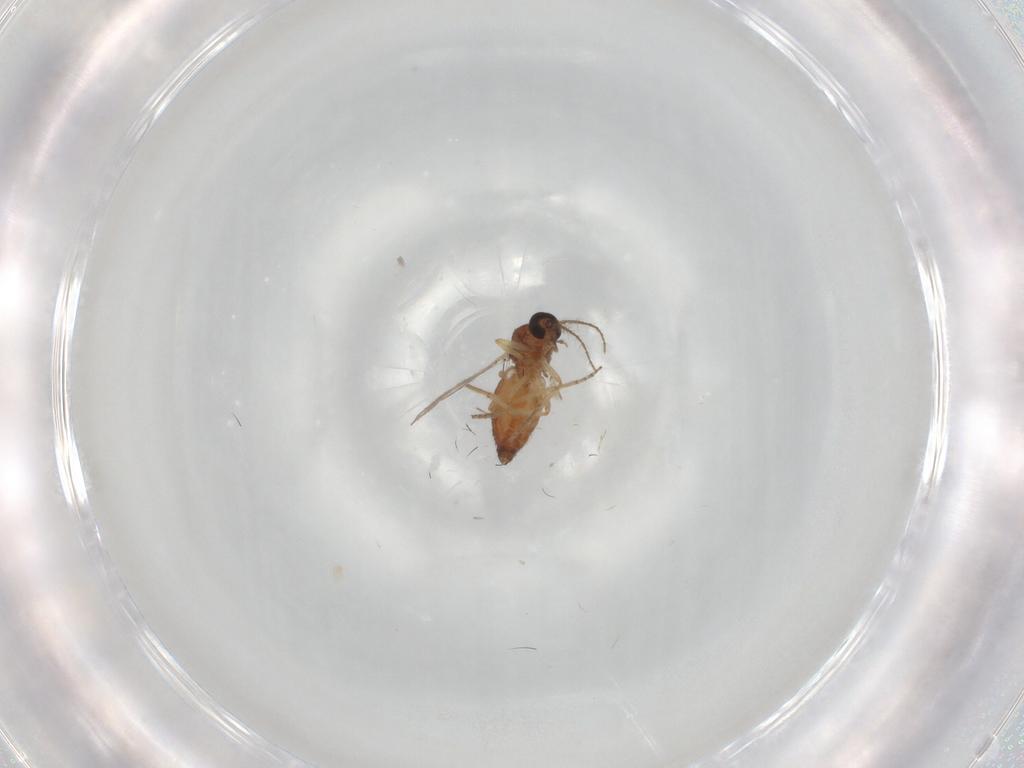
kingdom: Animalia
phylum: Arthropoda
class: Insecta
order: Diptera
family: Ceratopogonidae
